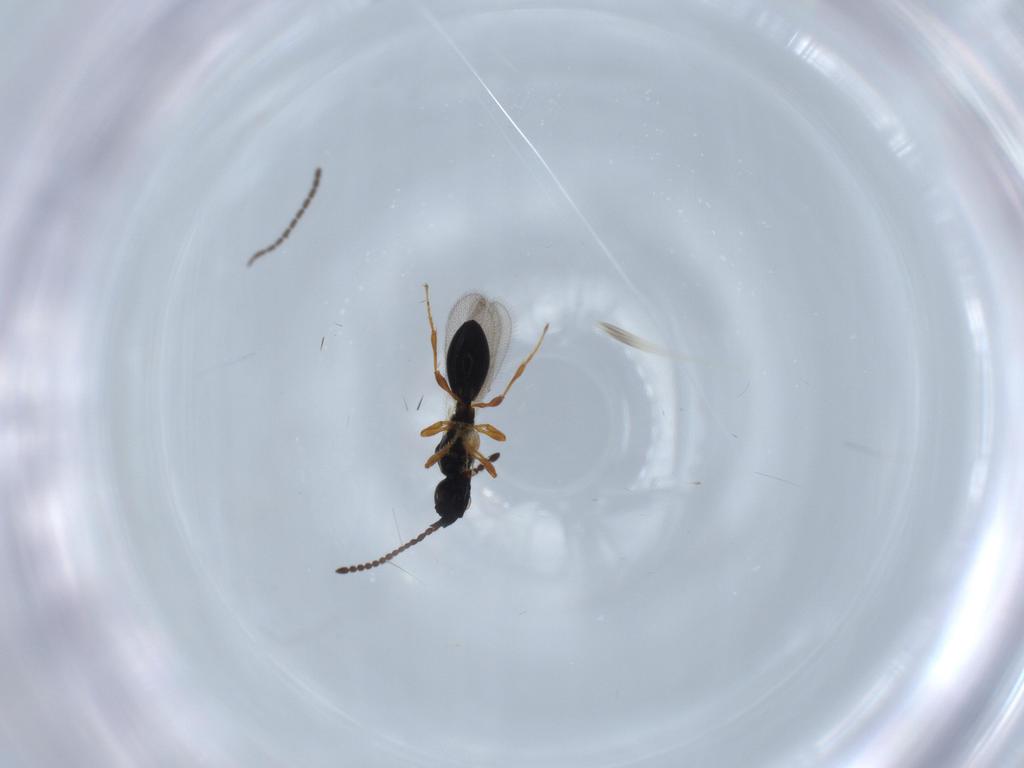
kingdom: Animalia
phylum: Arthropoda
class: Insecta
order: Hymenoptera
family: Diapriidae
